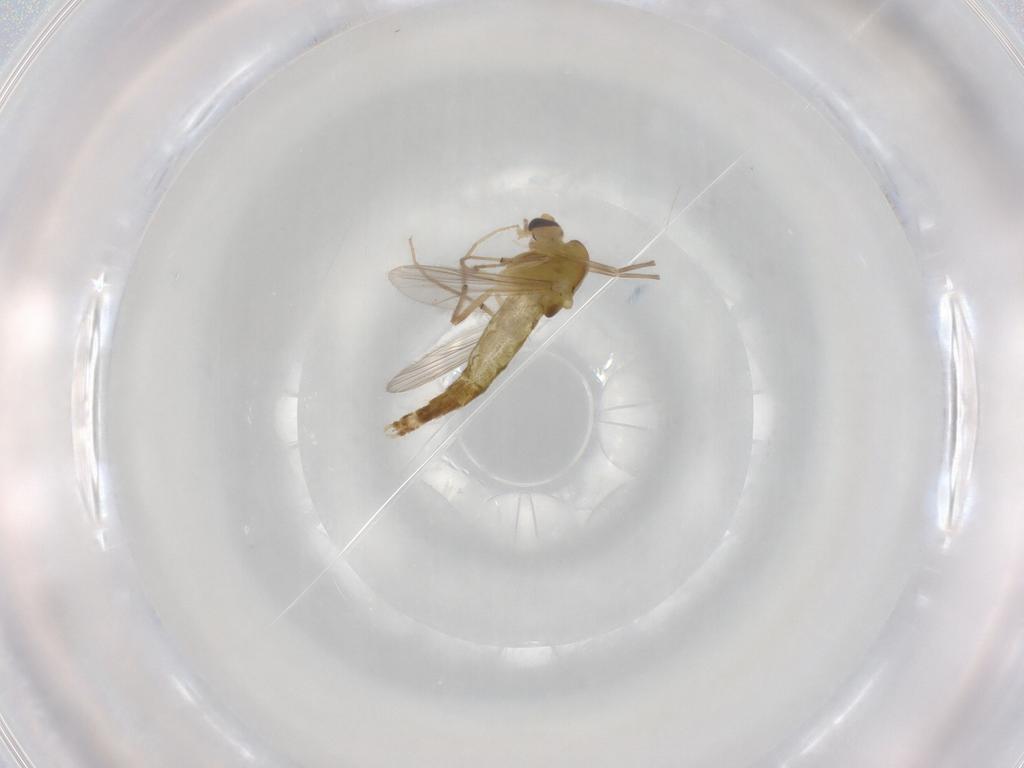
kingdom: Animalia
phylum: Arthropoda
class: Insecta
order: Diptera
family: Chironomidae
